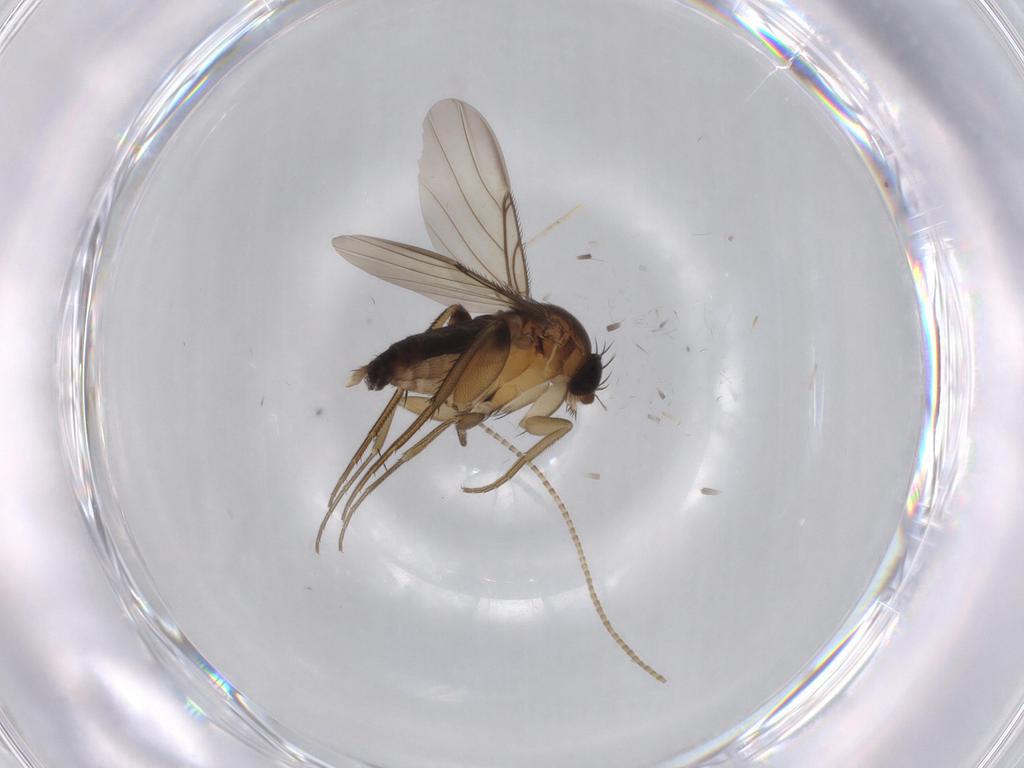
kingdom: Animalia
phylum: Arthropoda
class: Insecta
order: Diptera
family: Phoridae
